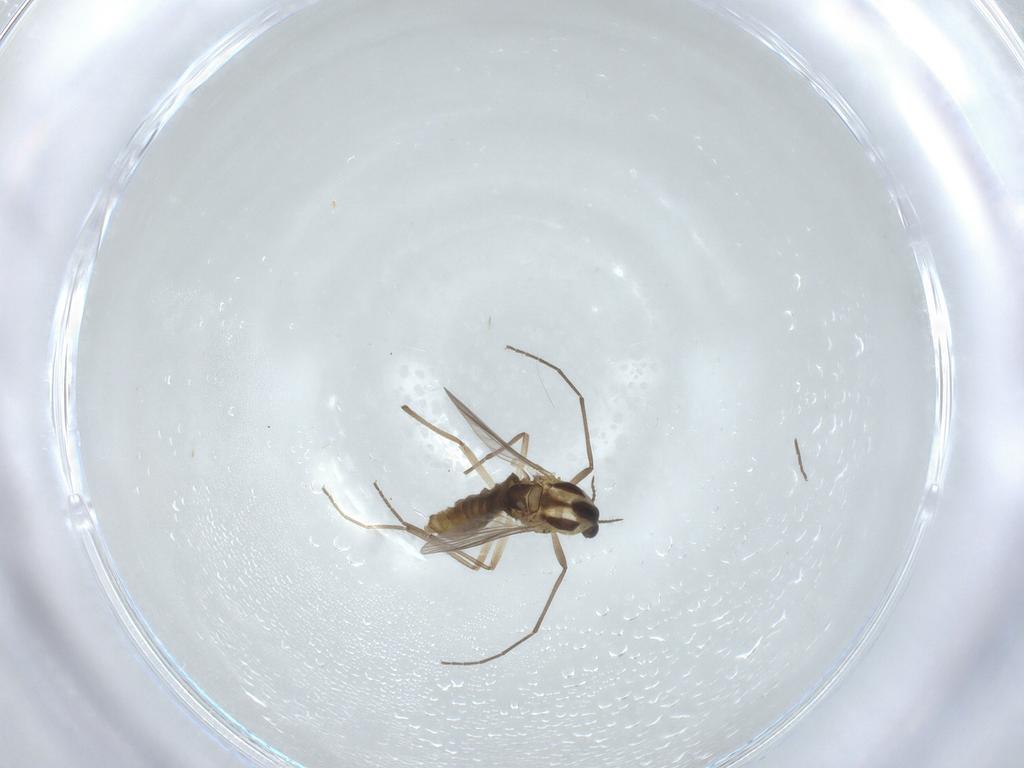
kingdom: Animalia
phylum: Arthropoda
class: Insecta
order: Diptera
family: Chironomidae
